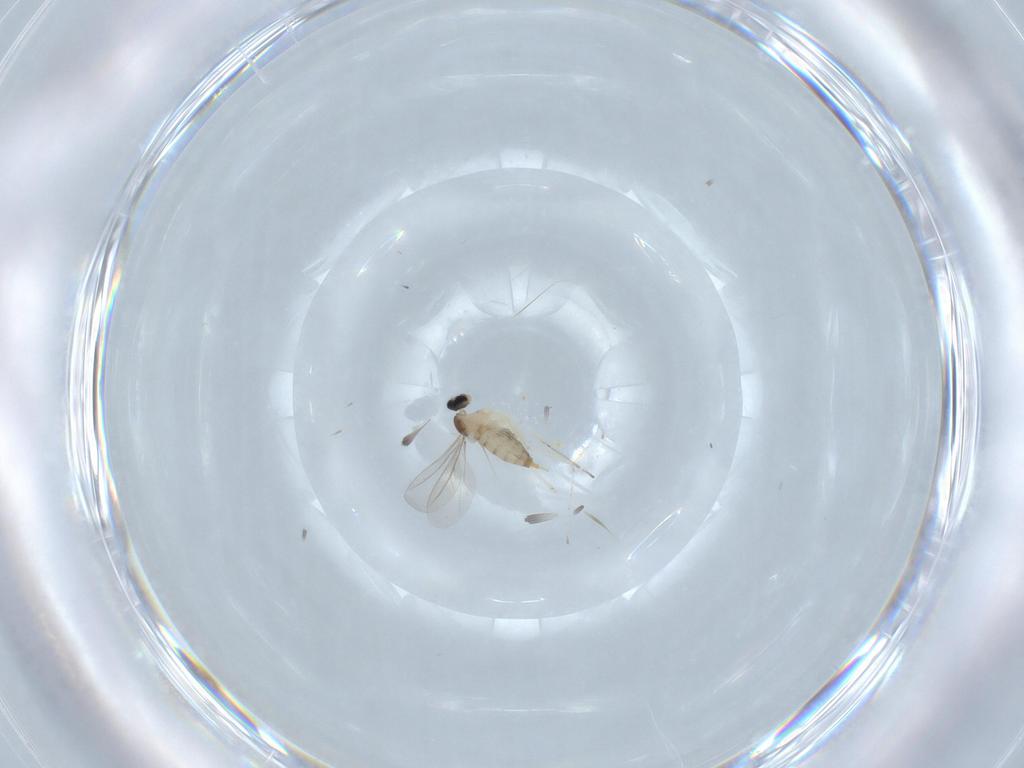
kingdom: Animalia
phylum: Arthropoda
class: Insecta
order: Diptera
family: Cecidomyiidae
